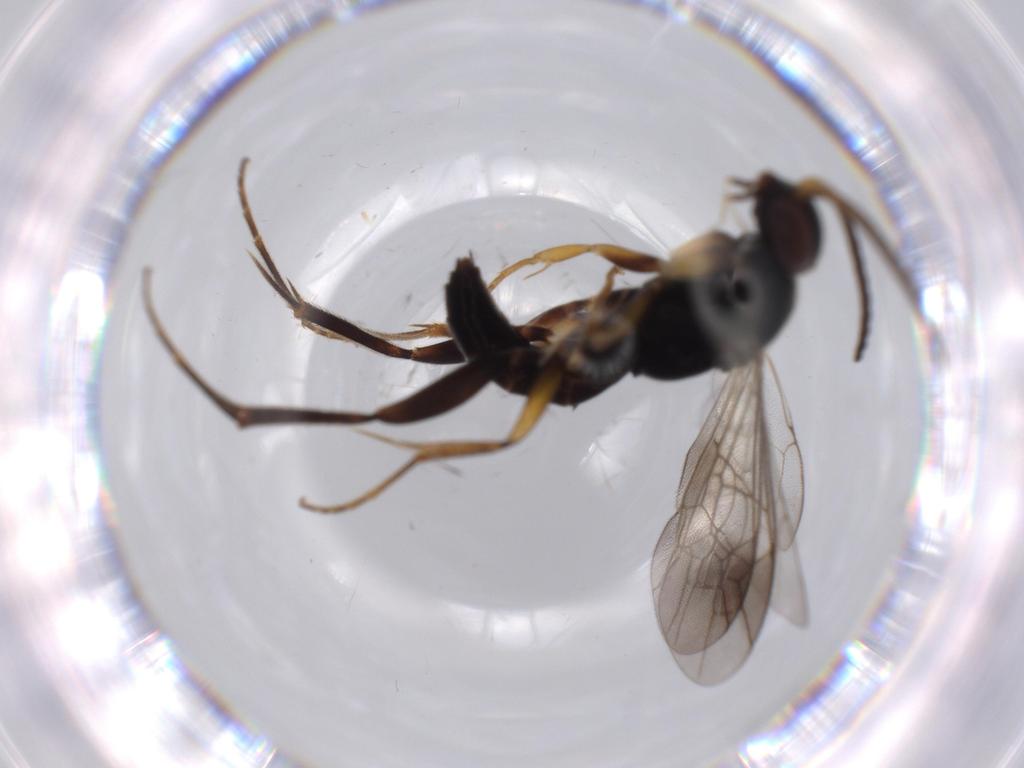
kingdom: Animalia
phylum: Arthropoda
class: Insecta
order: Hymenoptera
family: Pompilidae
